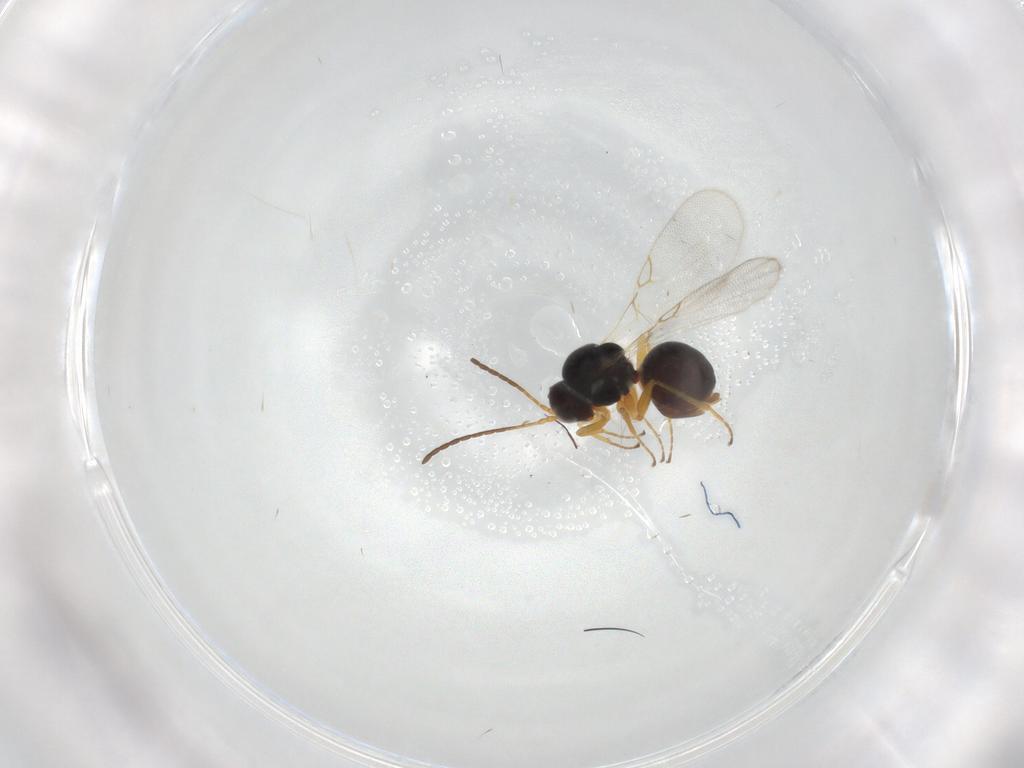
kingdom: Animalia
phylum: Arthropoda
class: Insecta
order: Hymenoptera
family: Figitidae
